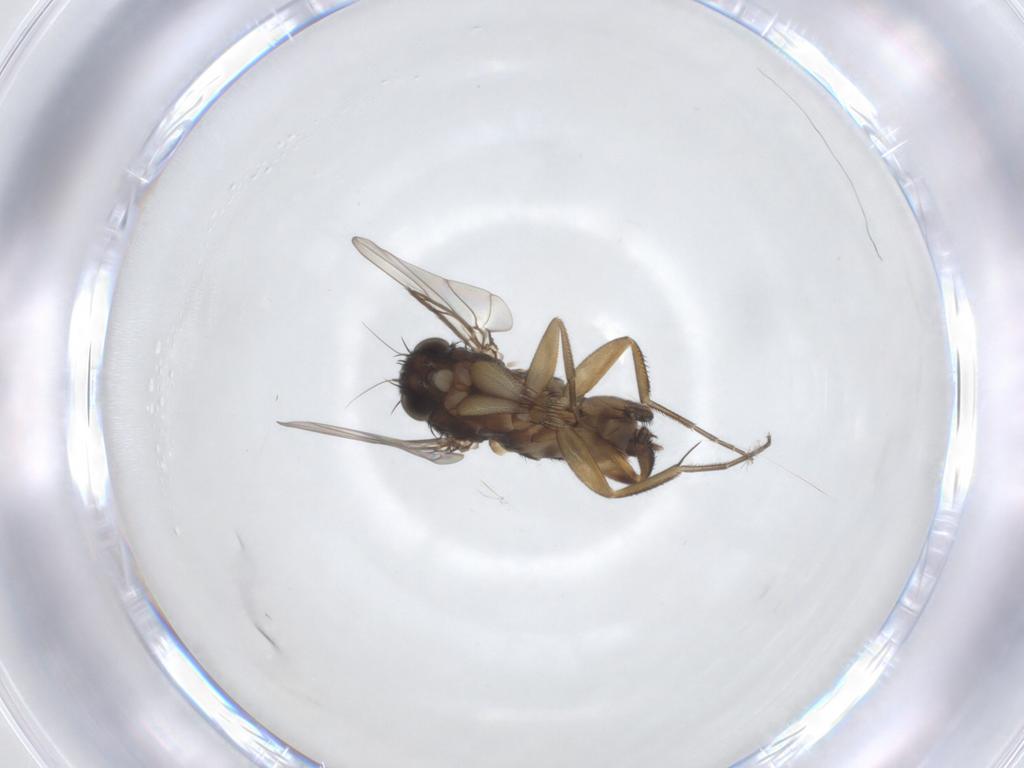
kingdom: Animalia
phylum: Arthropoda
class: Insecta
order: Diptera
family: Phoridae
